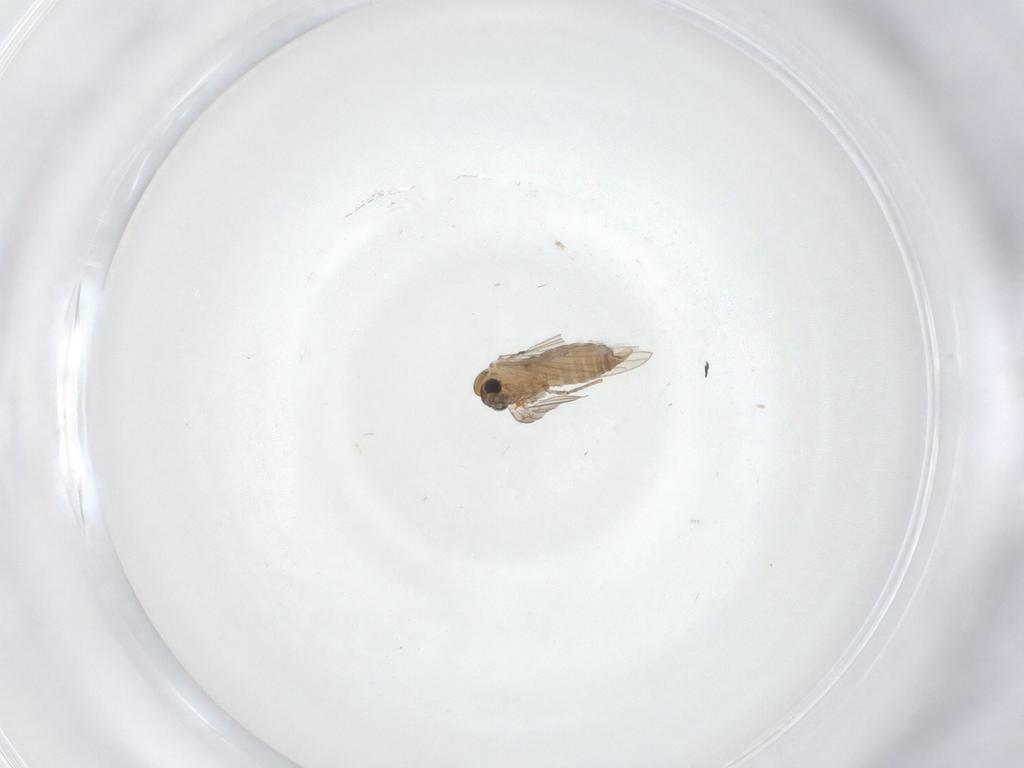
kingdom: Animalia
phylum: Arthropoda
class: Insecta
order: Diptera
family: Psychodidae
